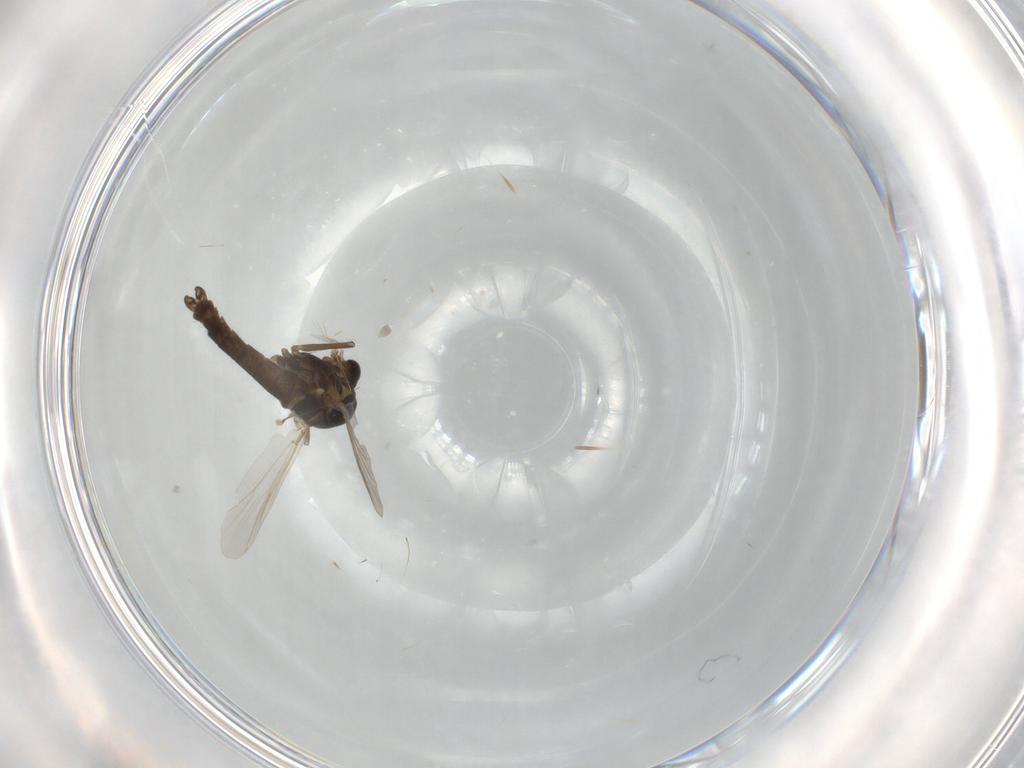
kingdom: Animalia
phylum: Arthropoda
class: Insecta
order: Diptera
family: Chironomidae
